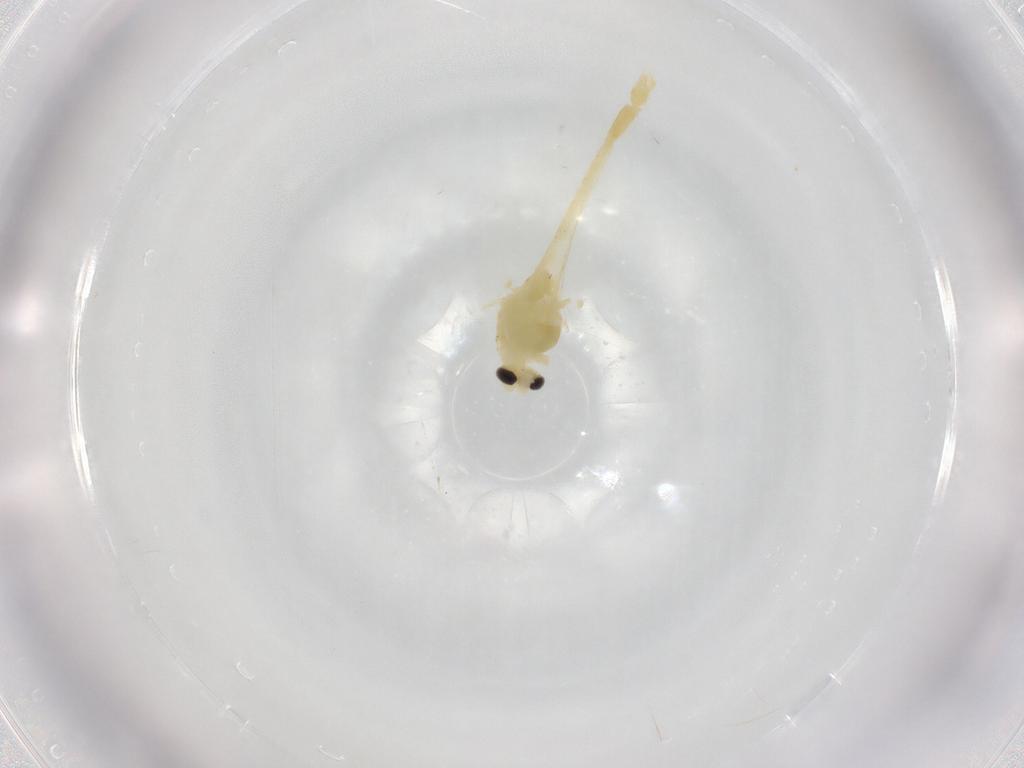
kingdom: Animalia
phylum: Arthropoda
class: Insecta
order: Diptera
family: Chironomidae
